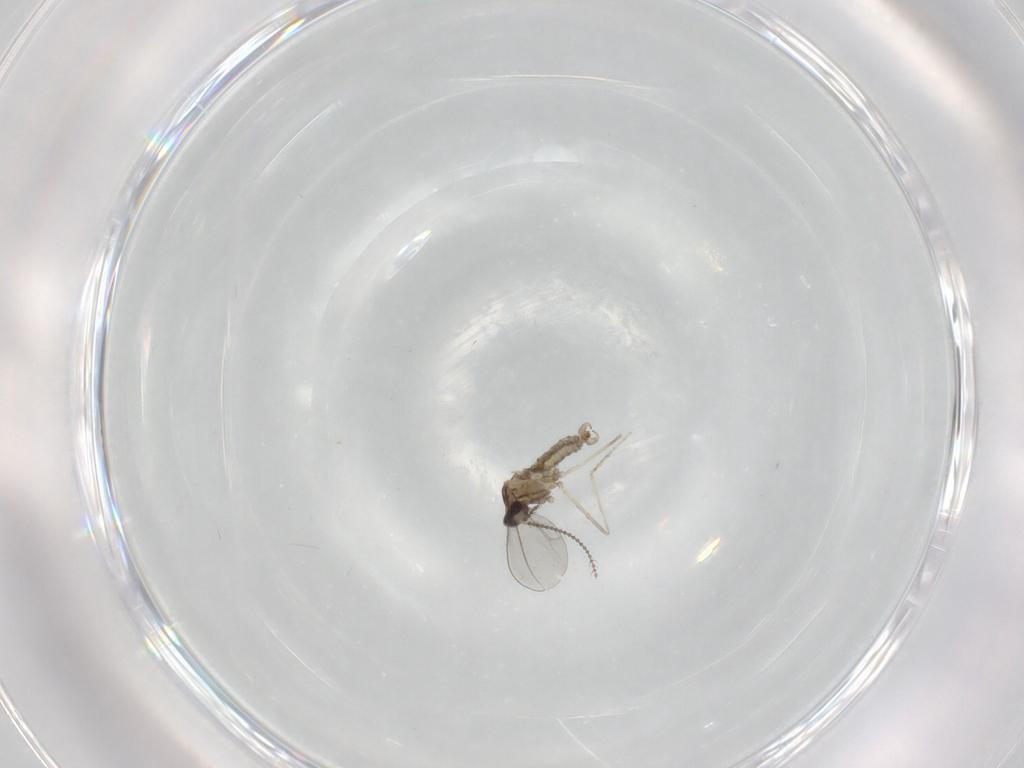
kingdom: Animalia
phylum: Arthropoda
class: Insecta
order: Diptera
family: Cecidomyiidae
